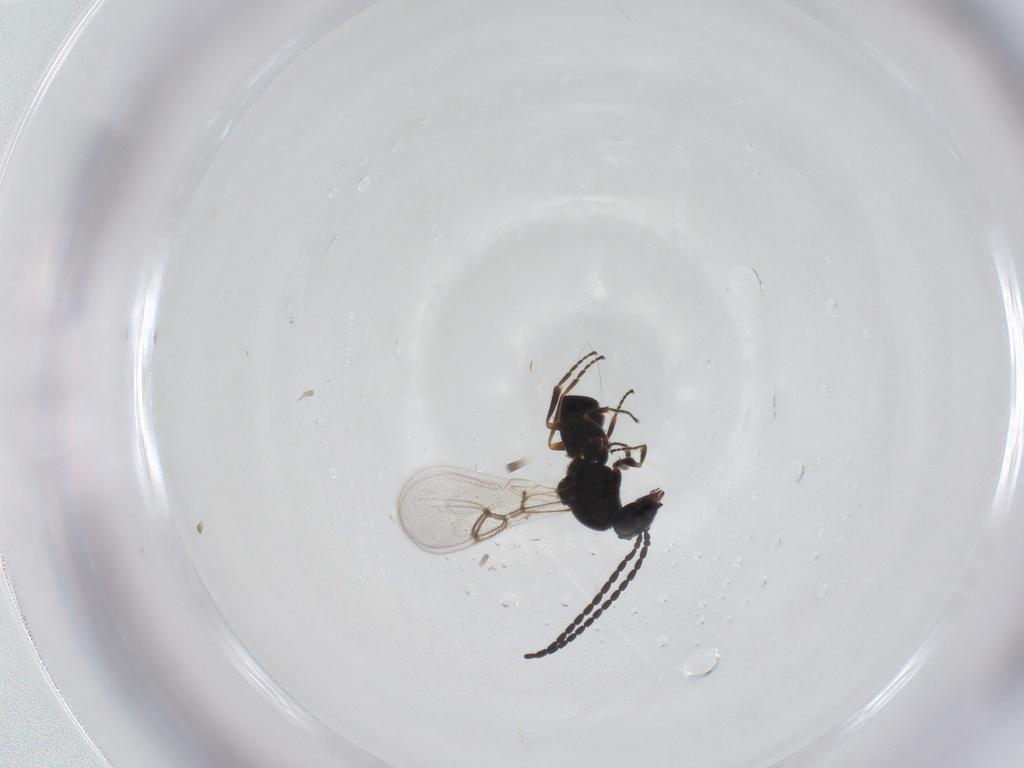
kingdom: Animalia
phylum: Arthropoda
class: Insecta
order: Hymenoptera
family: Figitidae
